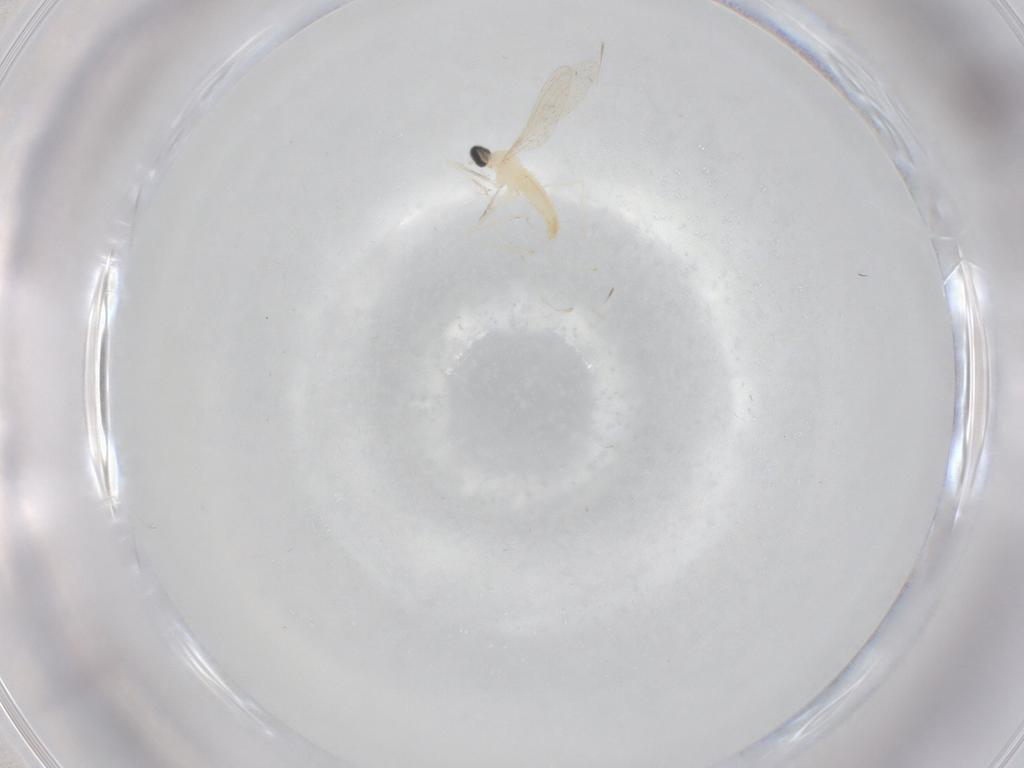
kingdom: Animalia
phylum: Arthropoda
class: Insecta
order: Diptera
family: Cecidomyiidae
